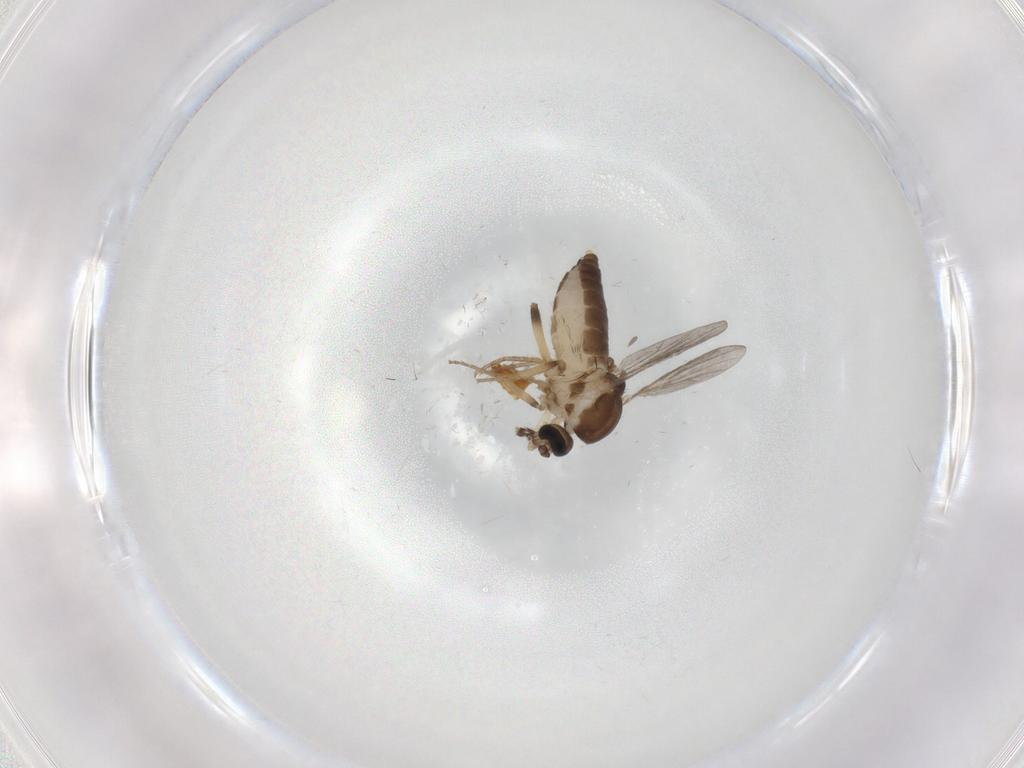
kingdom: Animalia
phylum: Arthropoda
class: Insecta
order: Diptera
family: Ceratopogonidae
